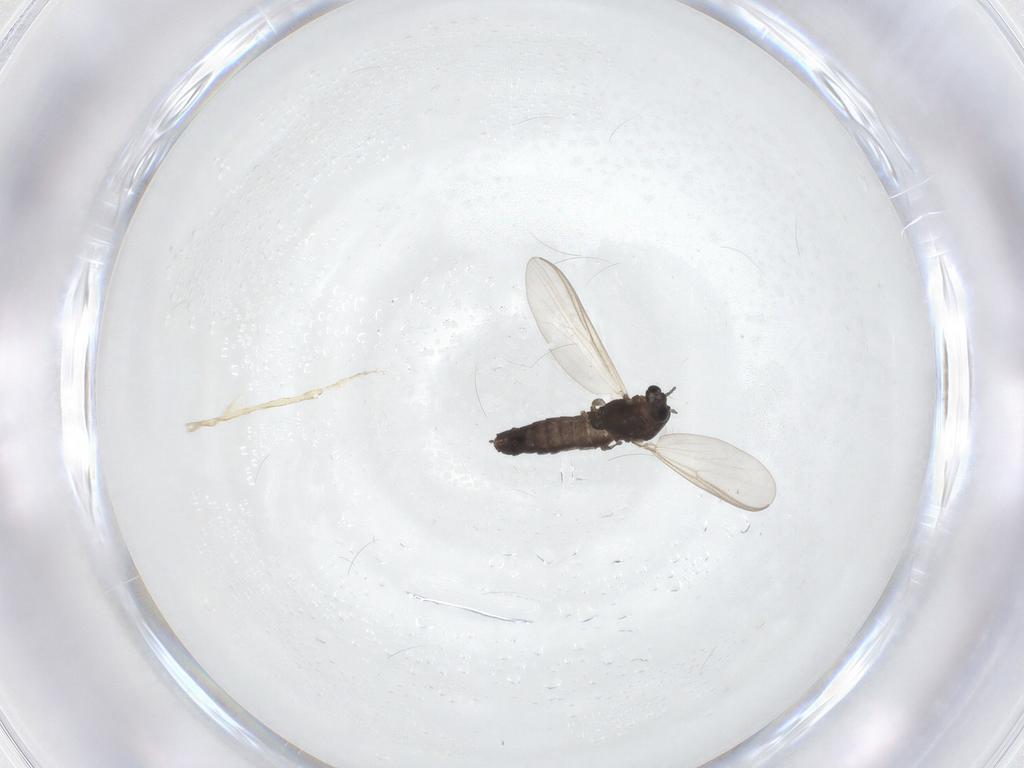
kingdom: Animalia
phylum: Arthropoda
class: Insecta
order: Diptera
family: Chironomidae
